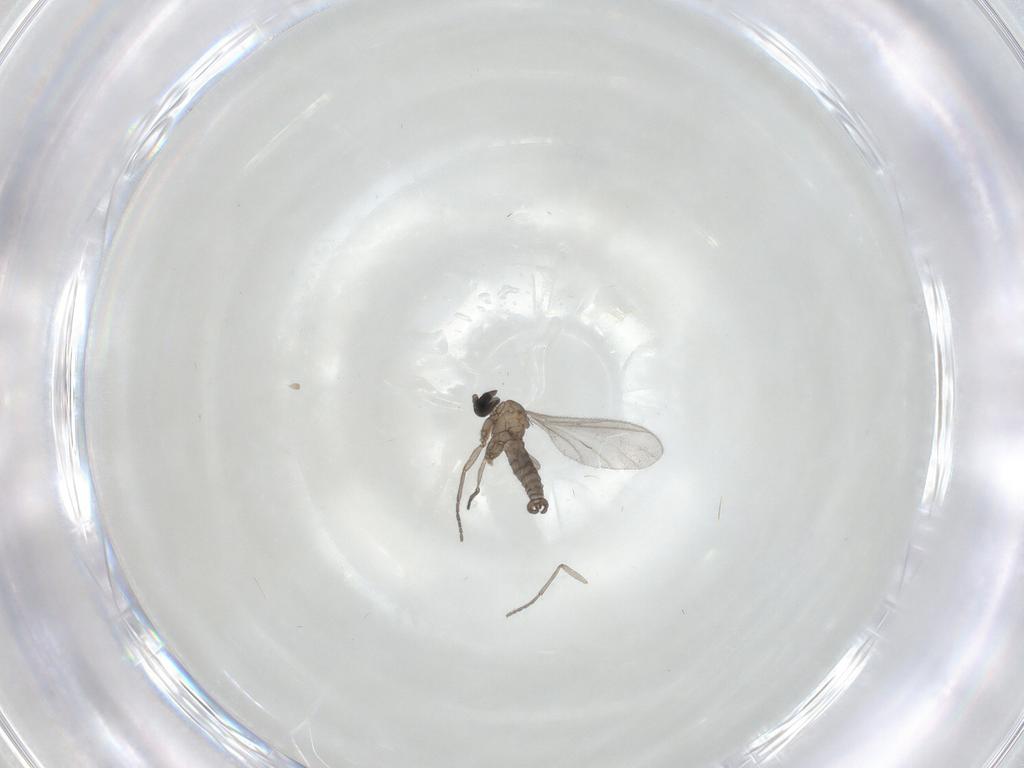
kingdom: Animalia
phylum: Arthropoda
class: Insecta
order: Diptera
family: Sciaridae
